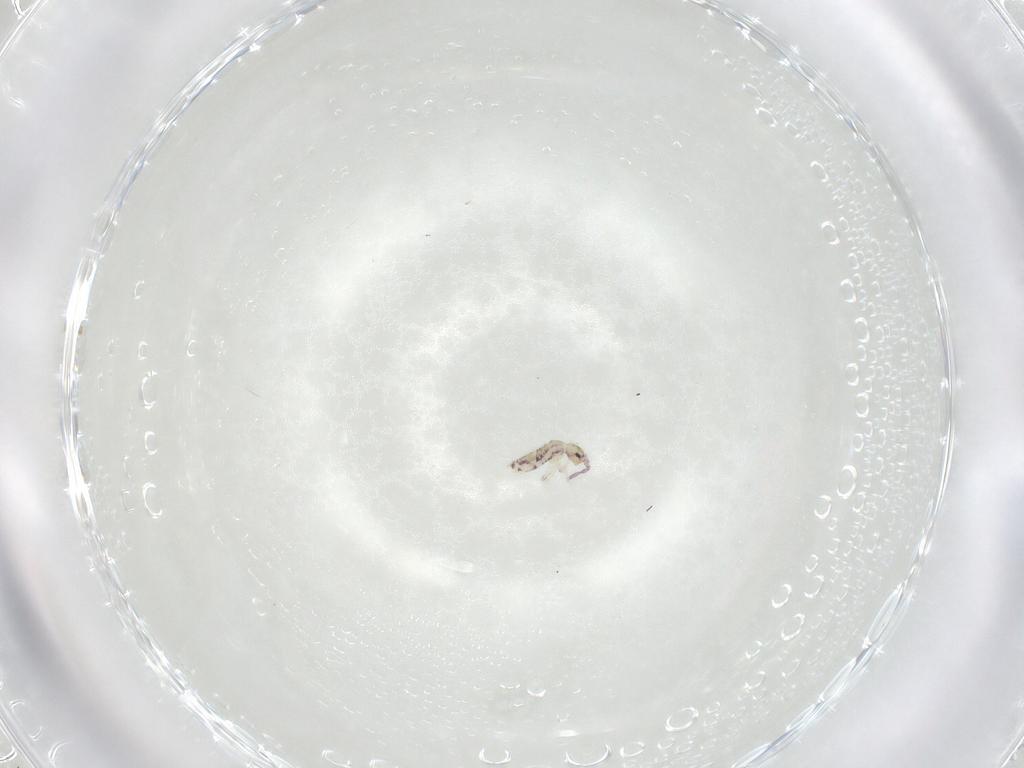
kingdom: Animalia
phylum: Arthropoda
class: Collembola
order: Entomobryomorpha
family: Entomobryidae
